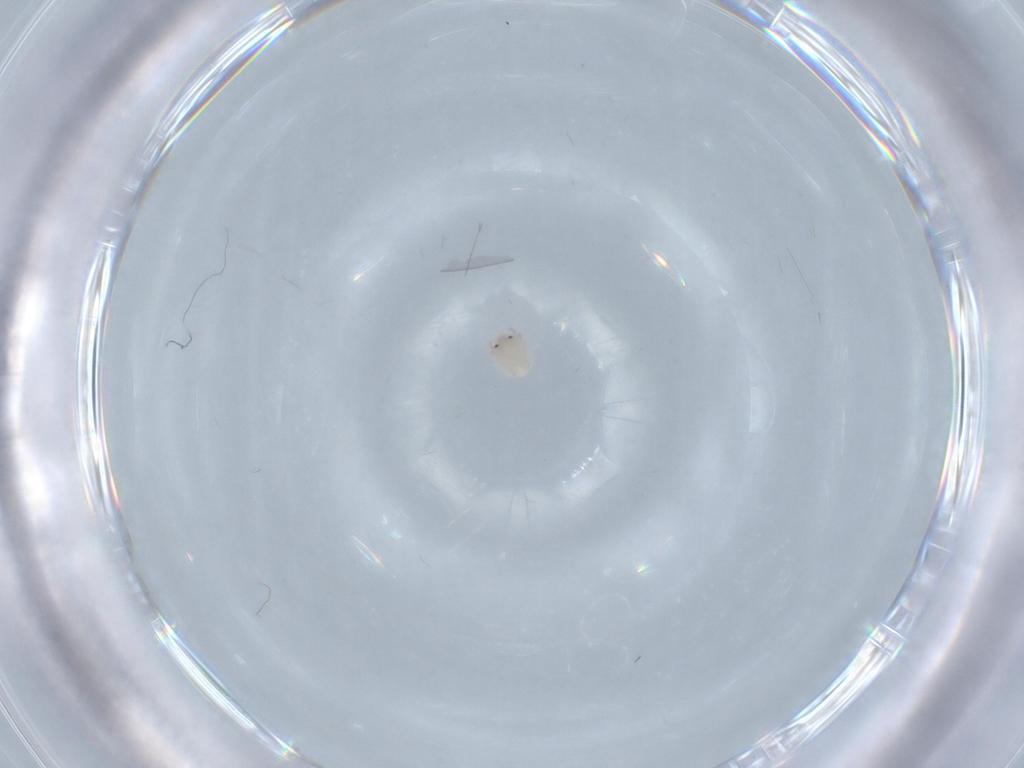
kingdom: Animalia
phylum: Arthropoda
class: Arachnida
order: Trombidiformes
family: Lebertiidae
